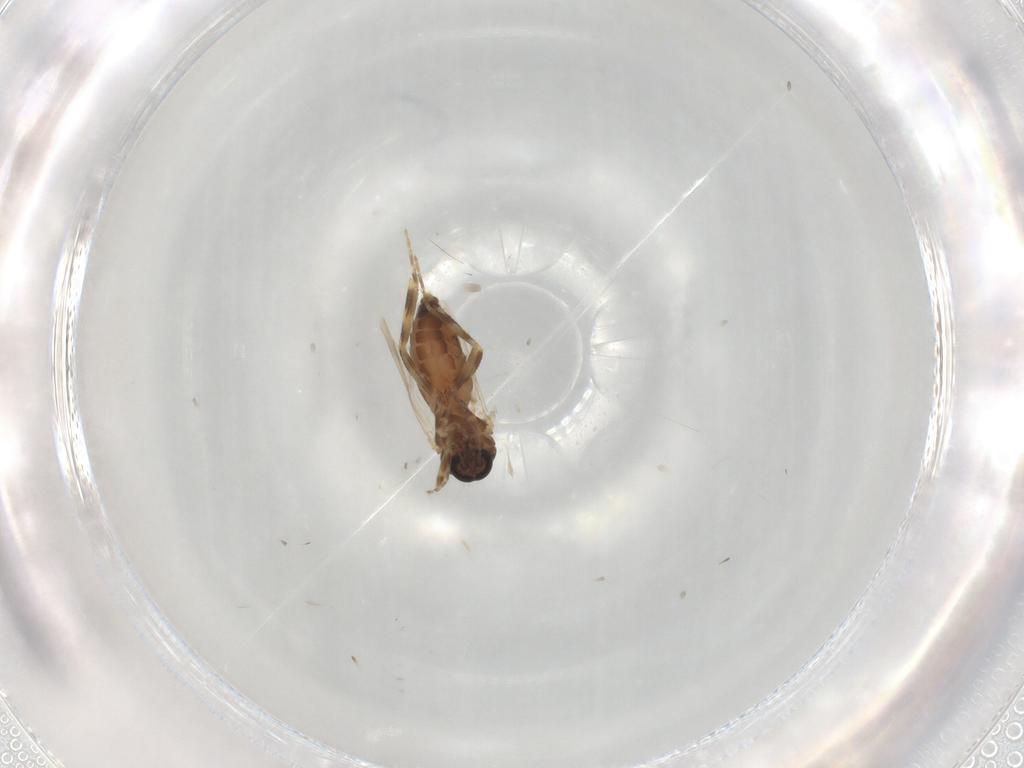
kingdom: Animalia
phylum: Arthropoda
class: Insecta
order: Diptera
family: Ceratopogonidae
